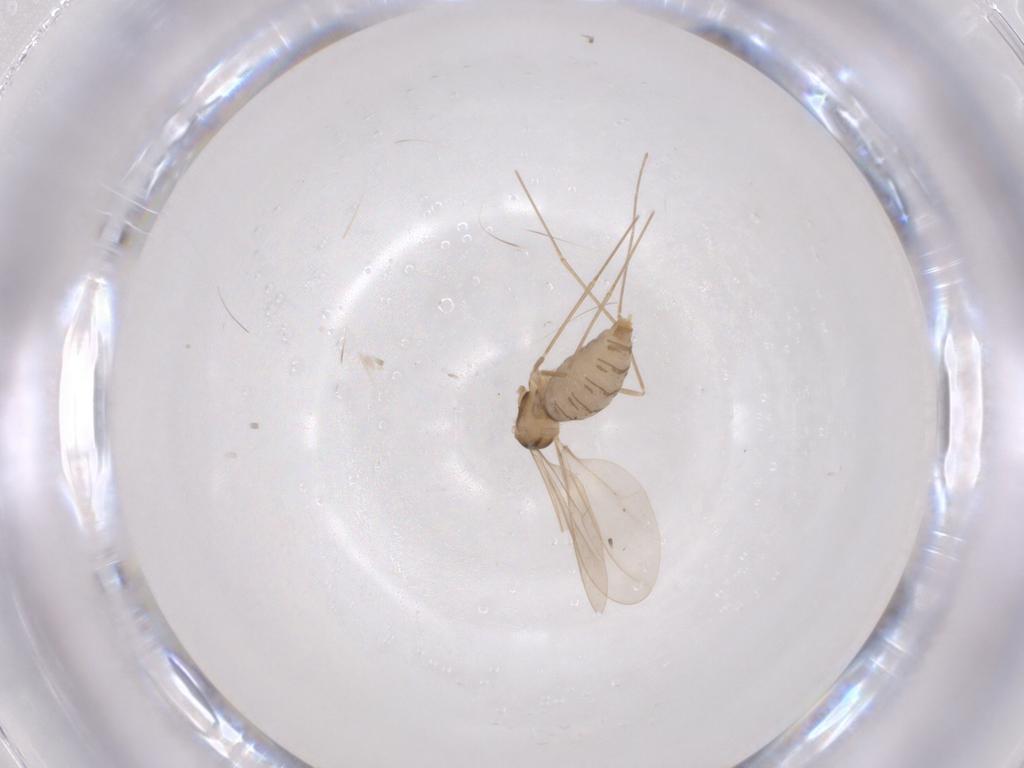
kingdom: Animalia
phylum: Arthropoda
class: Insecta
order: Diptera
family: Cecidomyiidae
